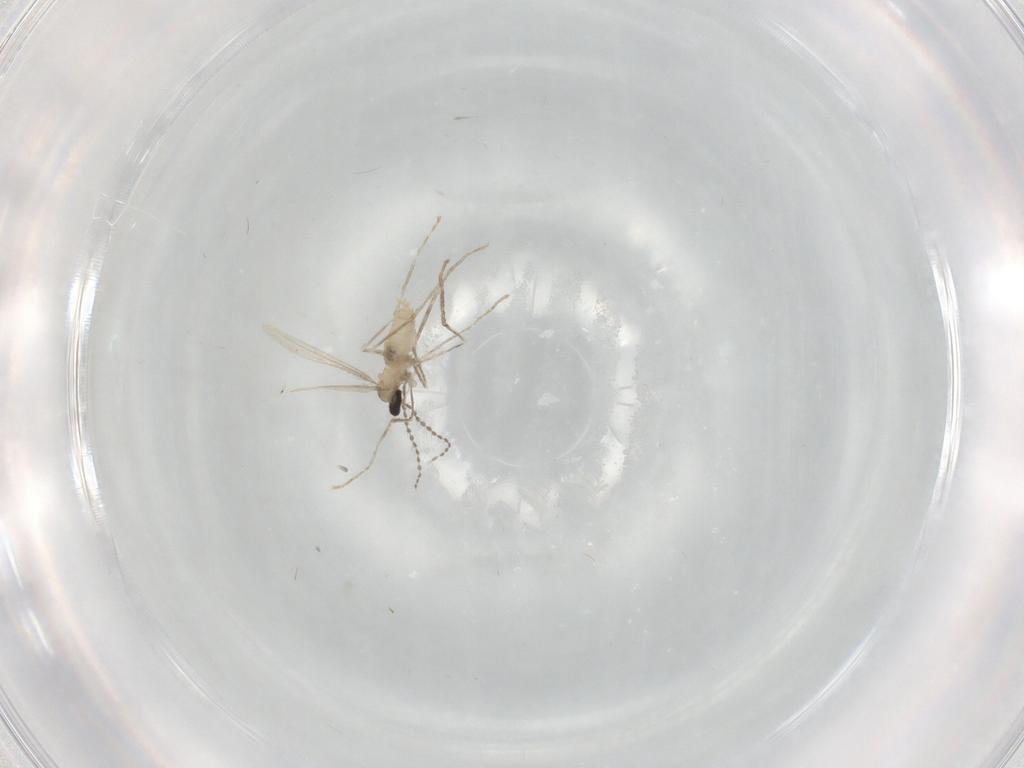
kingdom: Animalia
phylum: Arthropoda
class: Insecta
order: Diptera
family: Cecidomyiidae
